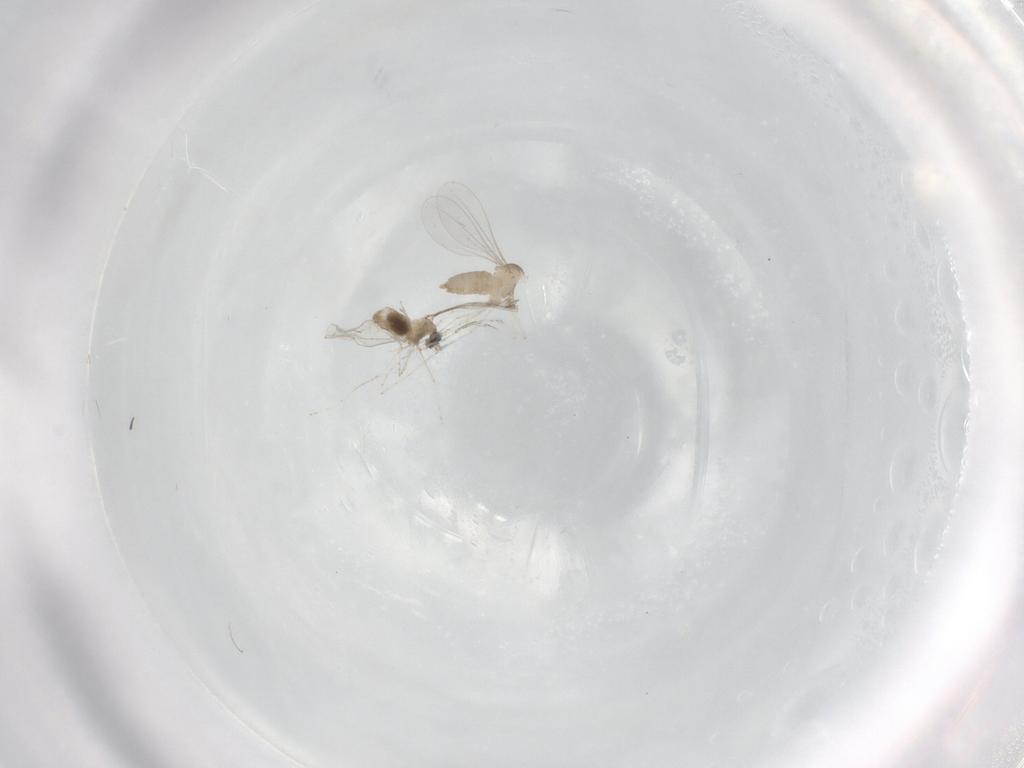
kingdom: Animalia
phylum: Arthropoda
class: Insecta
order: Diptera
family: Cecidomyiidae
